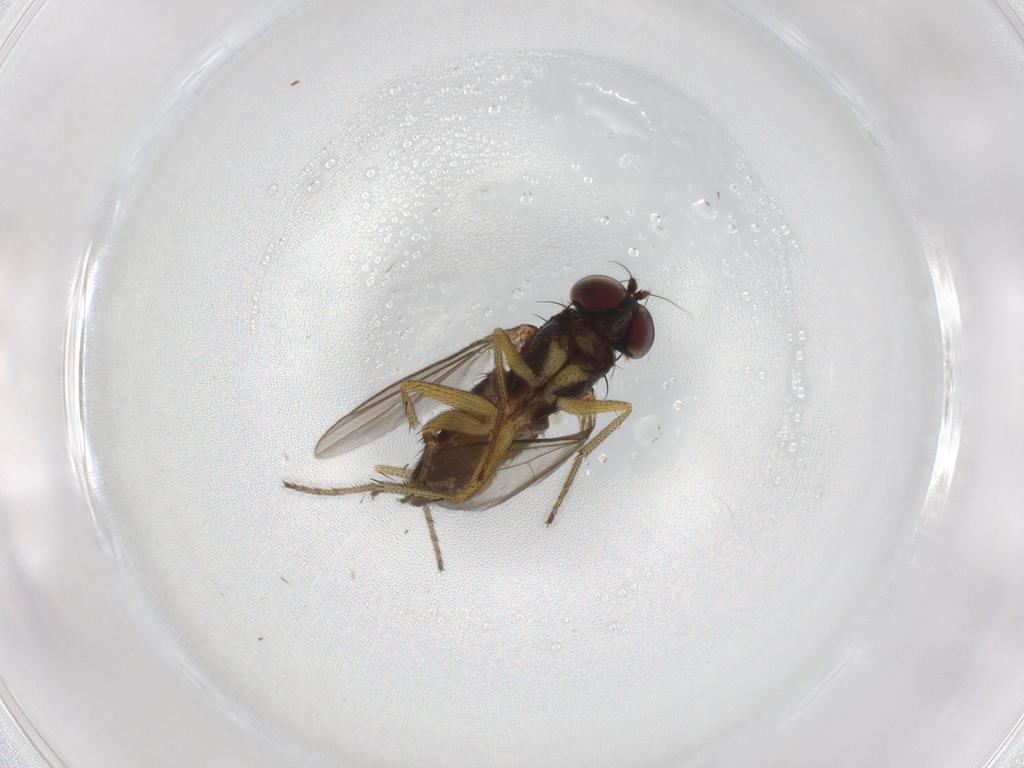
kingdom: Animalia
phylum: Arthropoda
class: Insecta
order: Diptera
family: Dolichopodidae
